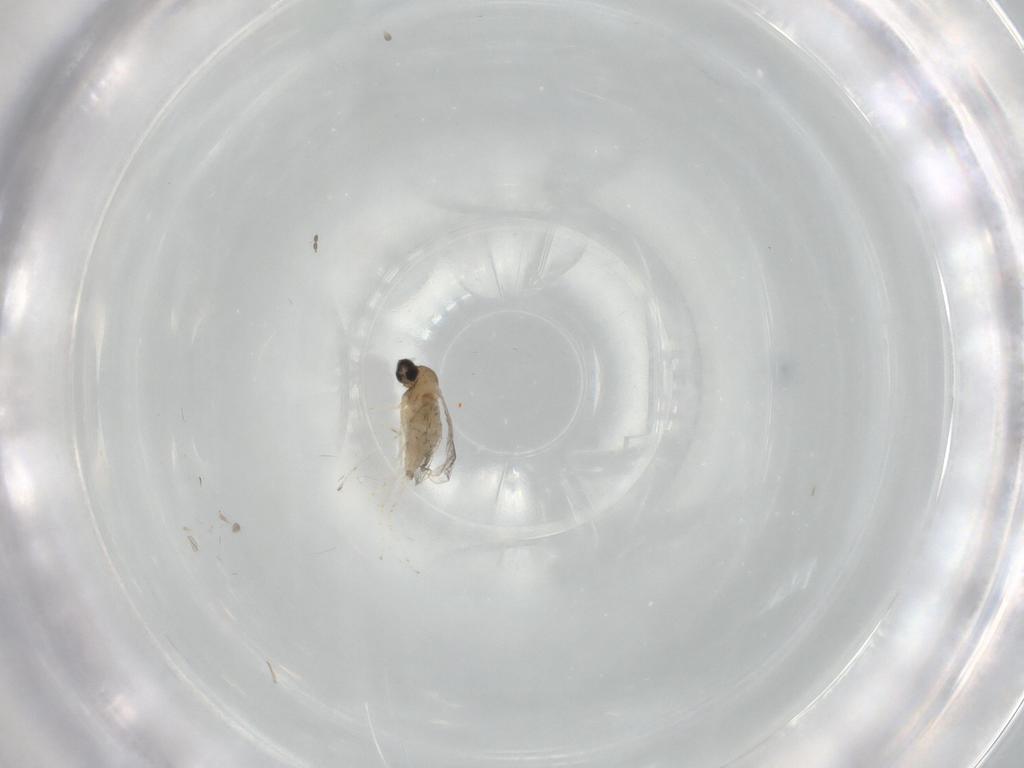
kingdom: Animalia
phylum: Arthropoda
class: Insecta
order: Diptera
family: Cecidomyiidae
